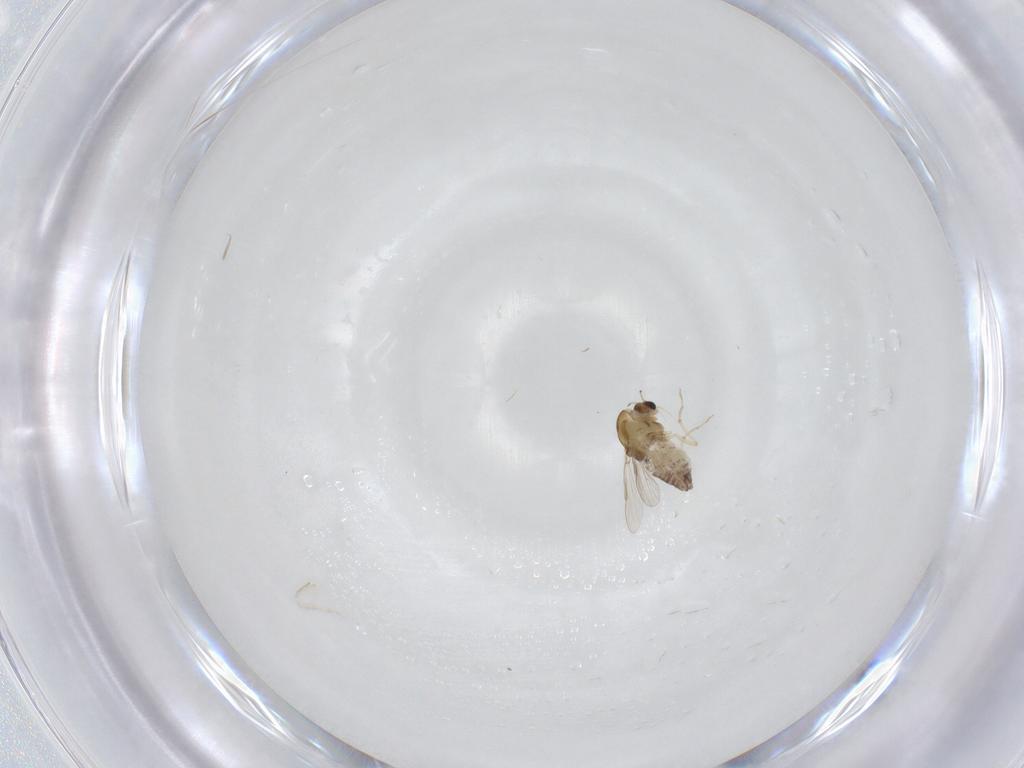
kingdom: Animalia
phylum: Arthropoda
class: Insecta
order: Diptera
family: Chironomidae
